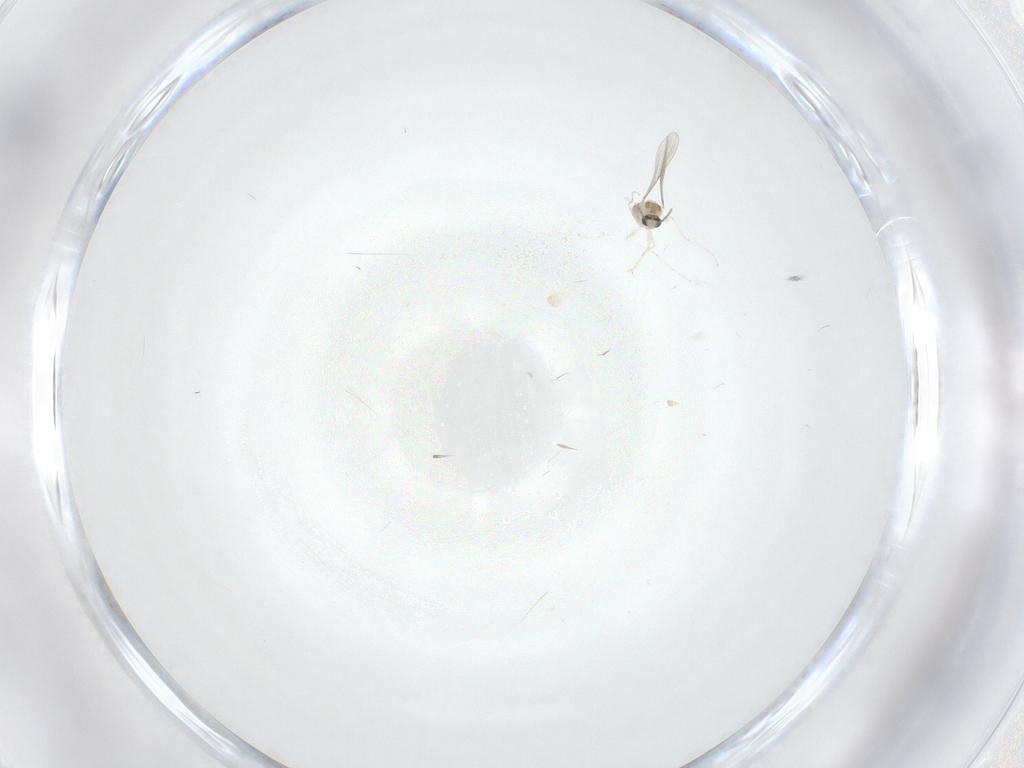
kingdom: Animalia
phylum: Arthropoda
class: Insecta
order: Diptera
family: Cecidomyiidae
